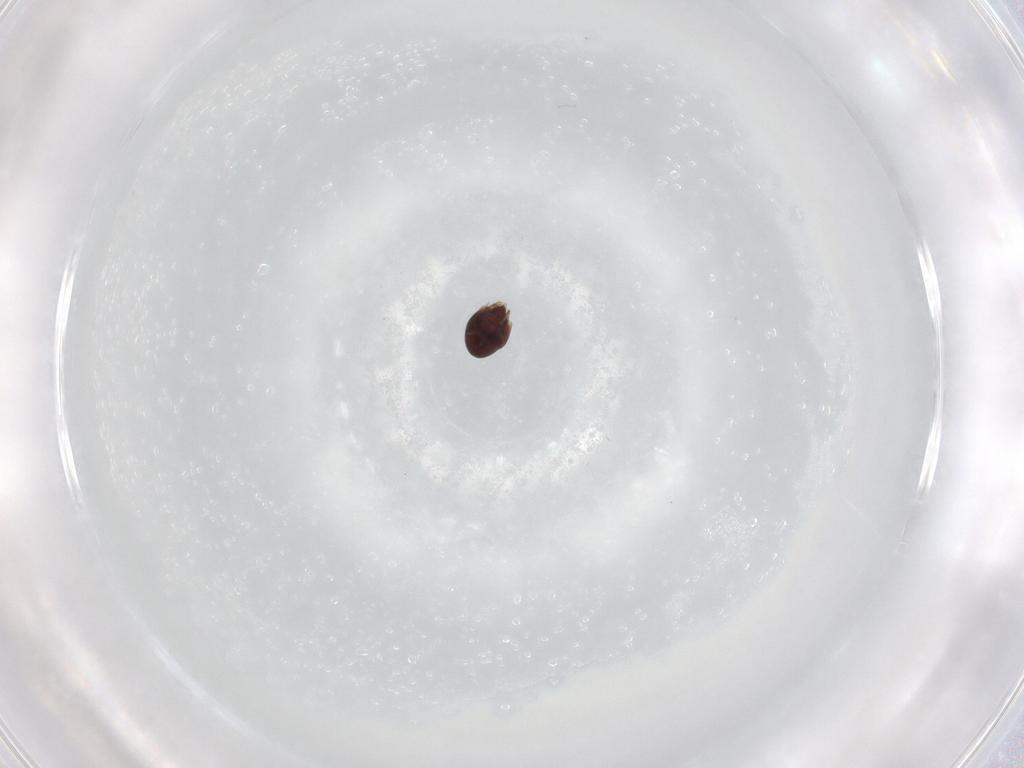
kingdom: Animalia
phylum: Arthropoda
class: Arachnida
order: Sarcoptiformes
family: Achipteriidae
